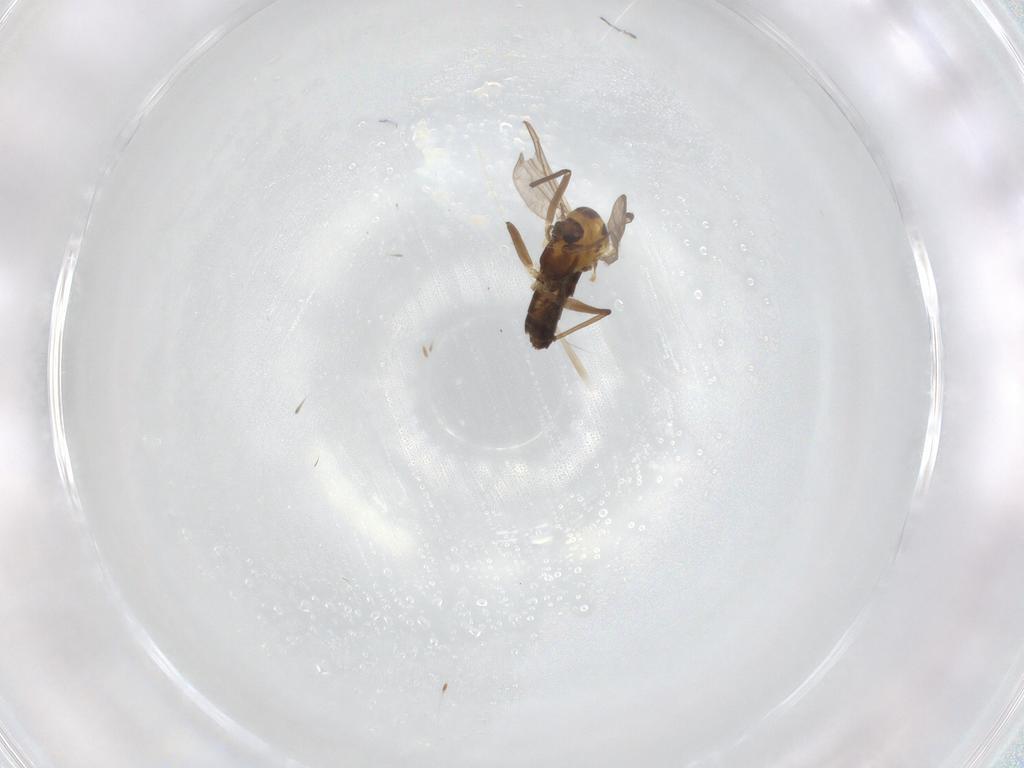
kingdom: Animalia
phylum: Arthropoda
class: Insecta
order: Diptera
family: Chironomidae
